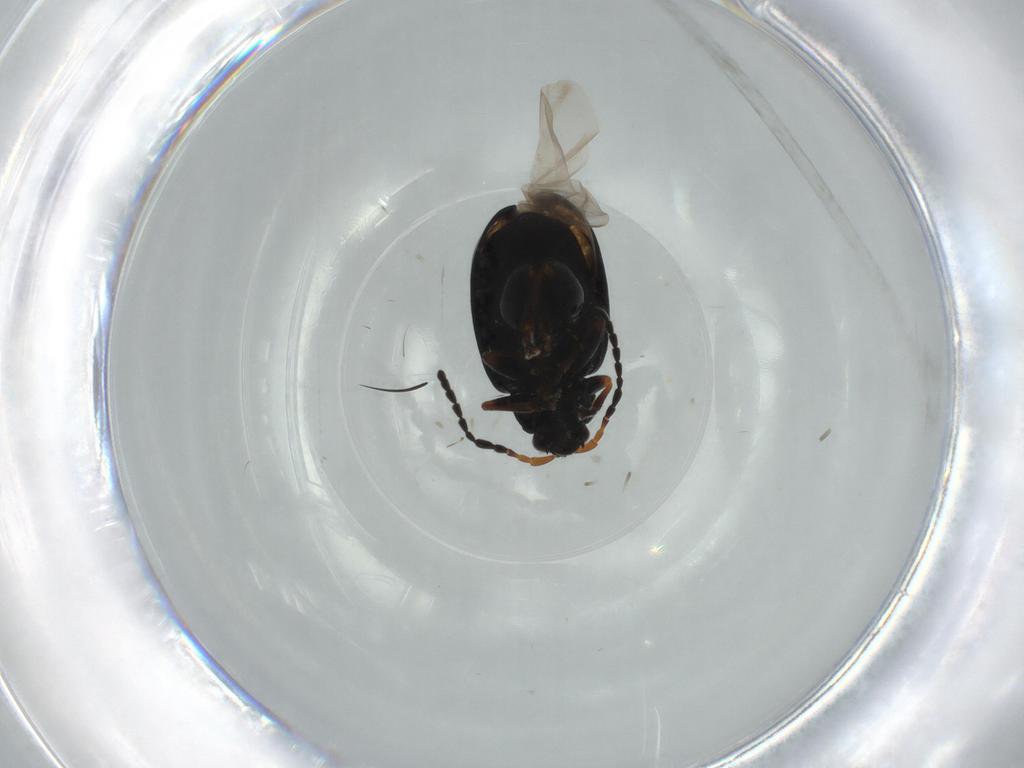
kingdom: Animalia
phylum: Arthropoda
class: Insecta
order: Coleoptera
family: Chrysomelidae
